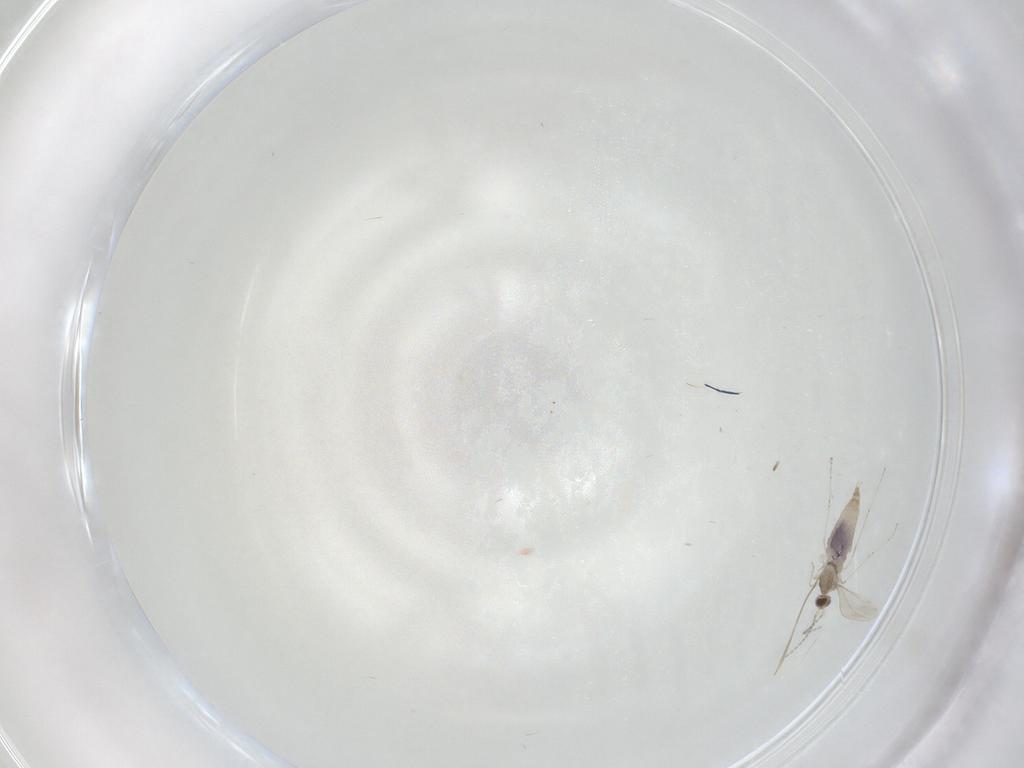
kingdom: Animalia
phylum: Arthropoda
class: Insecta
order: Diptera
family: Cecidomyiidae
